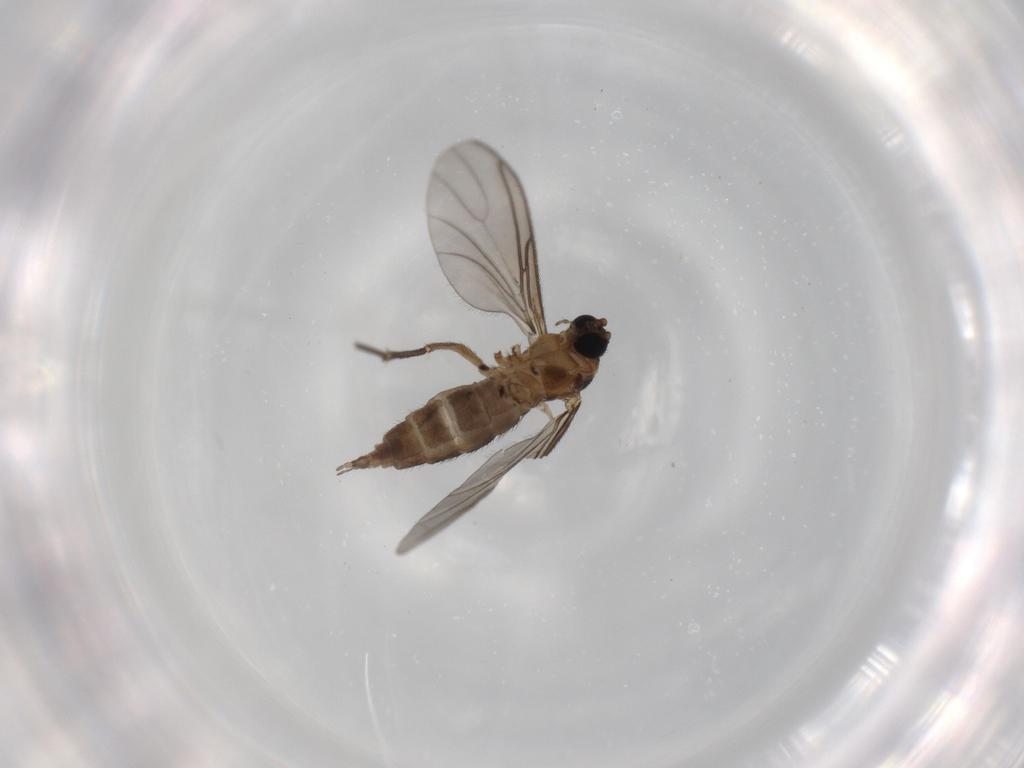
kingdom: Animalia
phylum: Arthropoda
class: Insecta
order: Diptera
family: Sciaridae
